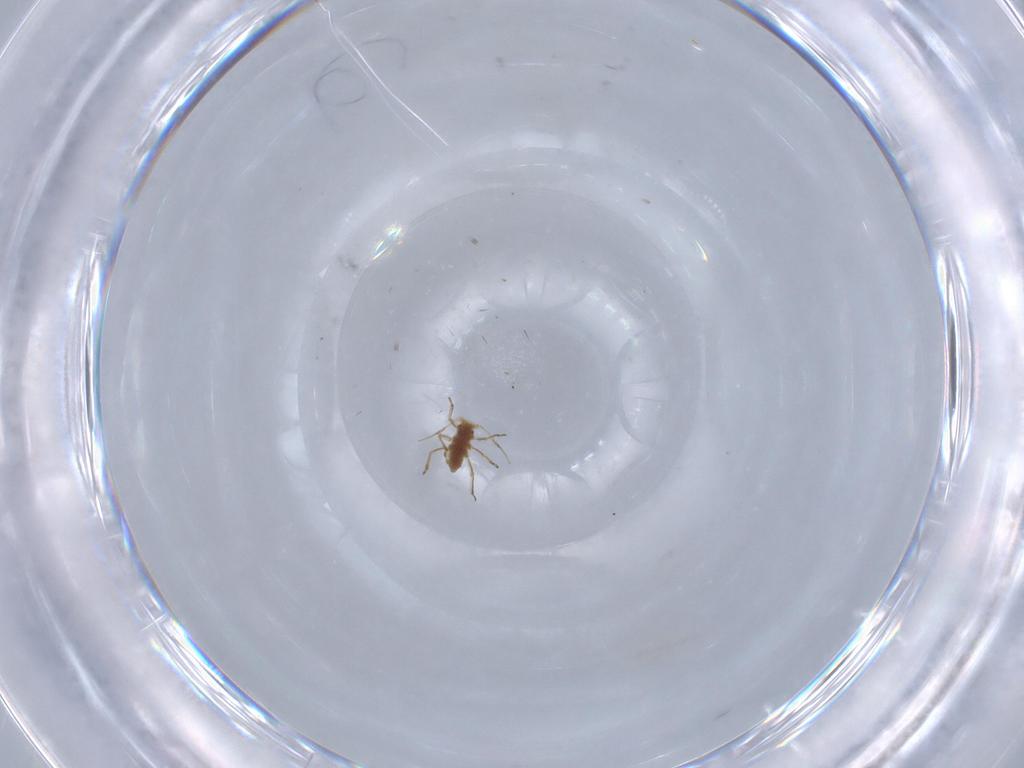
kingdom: Animalia
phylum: Arthropoda
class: Insecta
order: Hemiptera
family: Aphididae
